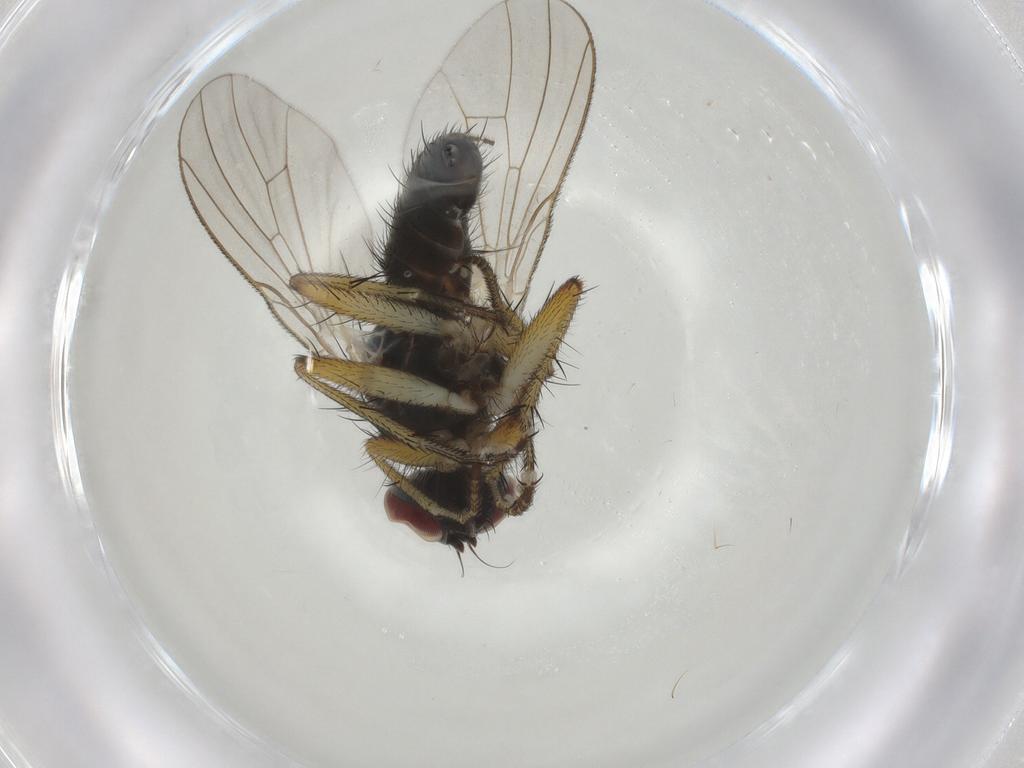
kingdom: Animalia
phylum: Arthropoda
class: Insecta
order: Diptera
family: Muscidae
